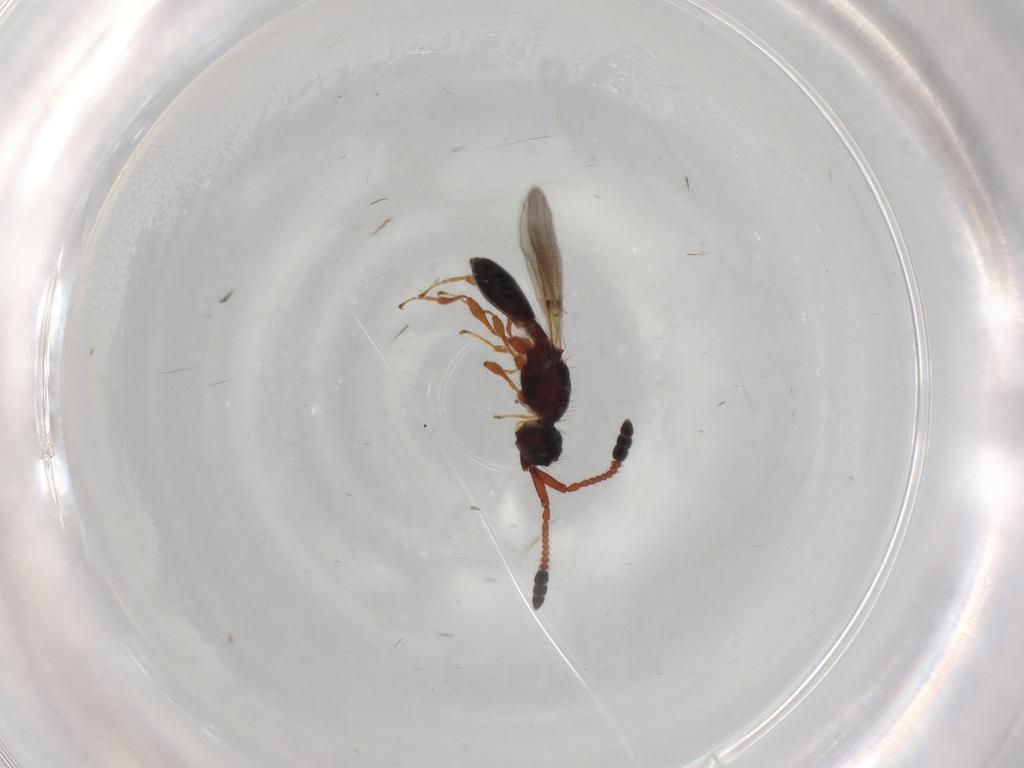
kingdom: Animalia
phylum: Arthropoda
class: Insecta
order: Hymenoptera
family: Diapriidae
